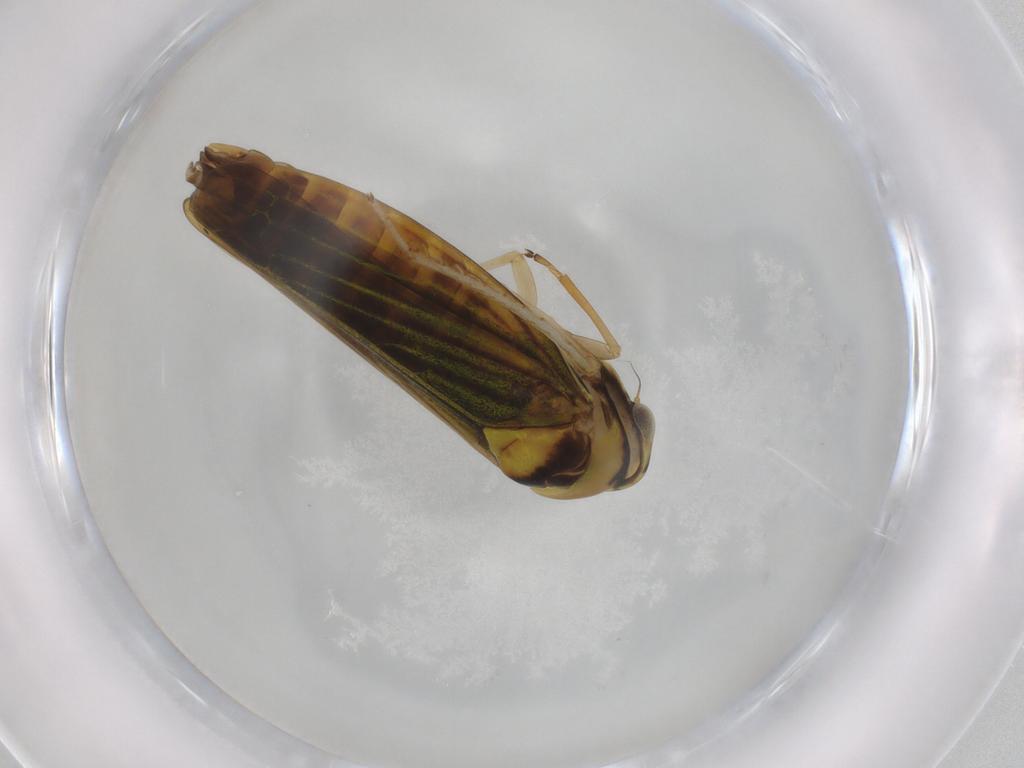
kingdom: Animalia
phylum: Arthropoda
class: Insecta
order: Hemiptera
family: Cicadellidae
